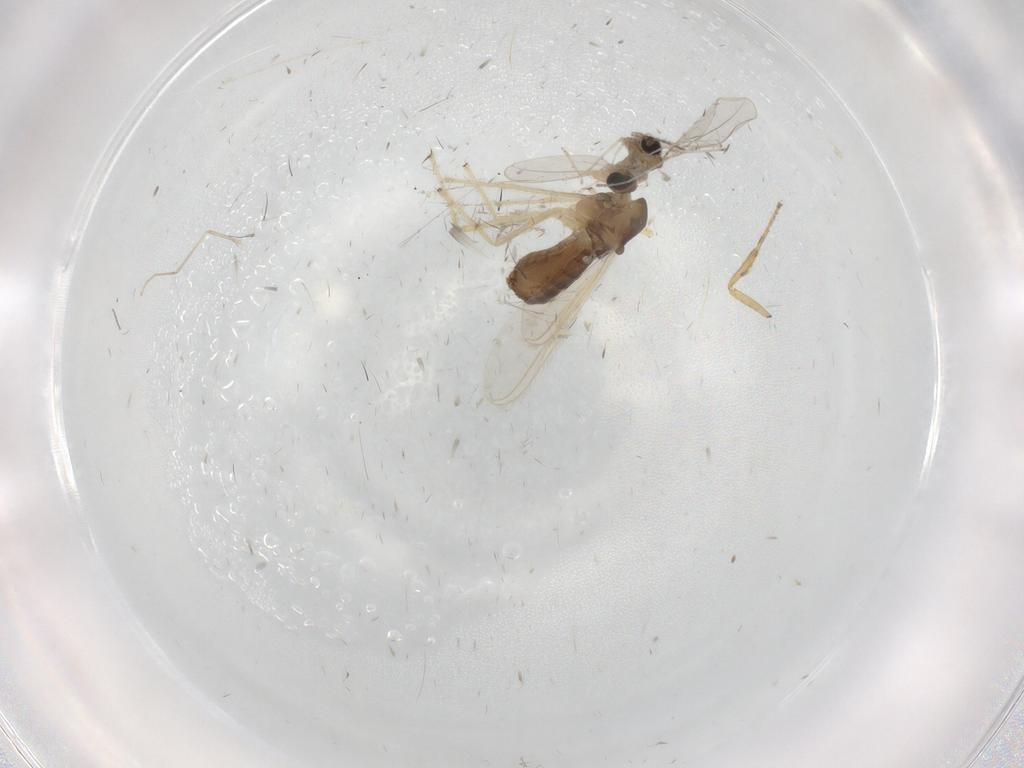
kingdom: Animalia
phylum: Arthropoda
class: Insecta
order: Diptera
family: Chironomidae
